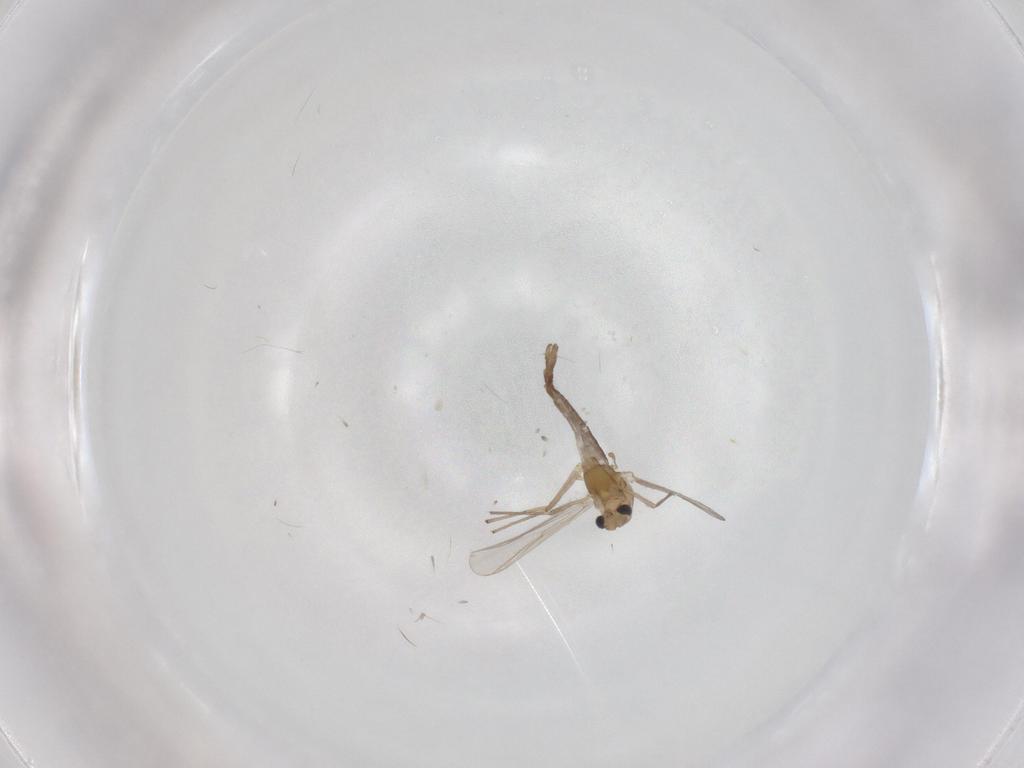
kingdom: Animalia
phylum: Arthropoda
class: Insecta
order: Diptera
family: Chironomidae
